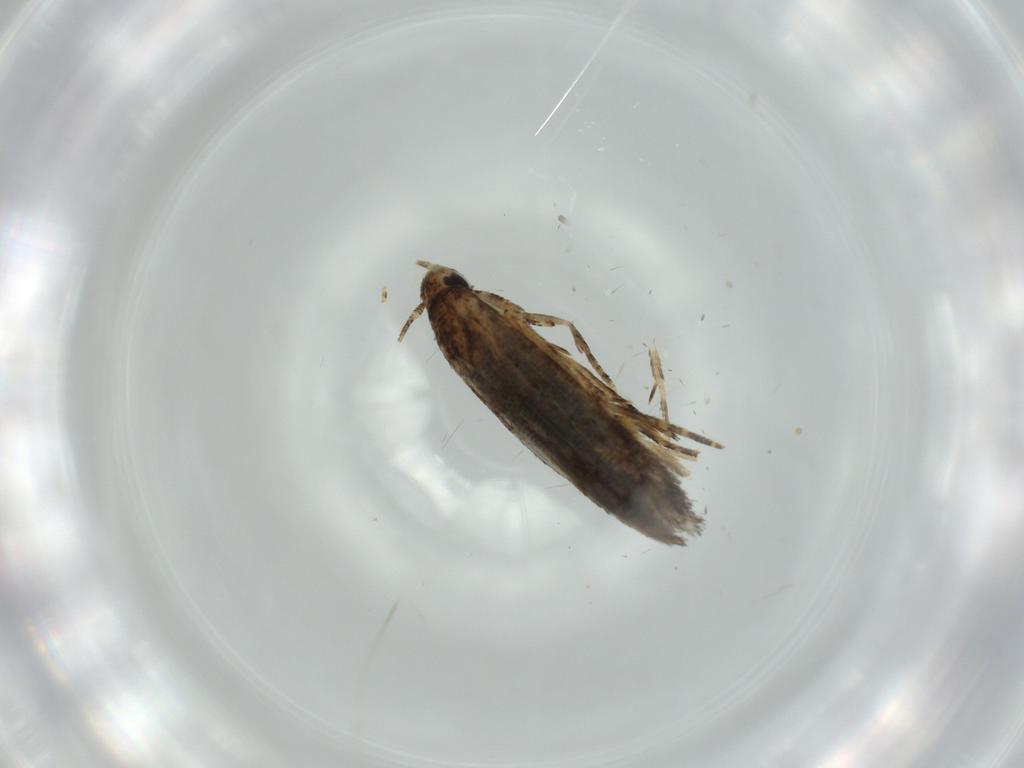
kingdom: Animalia
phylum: Arthropoda
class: Insecta
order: Lepidoptera
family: Momphidae
